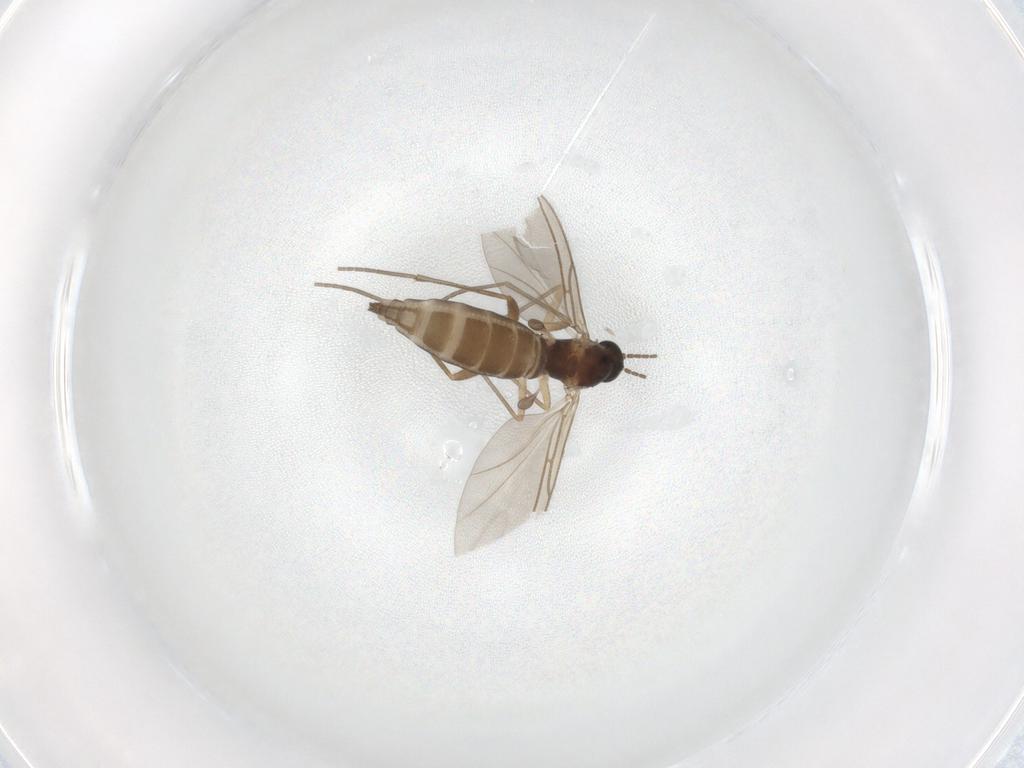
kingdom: Animalia
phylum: Arthropoda
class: Insecta
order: Diptera
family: Sciaridae
